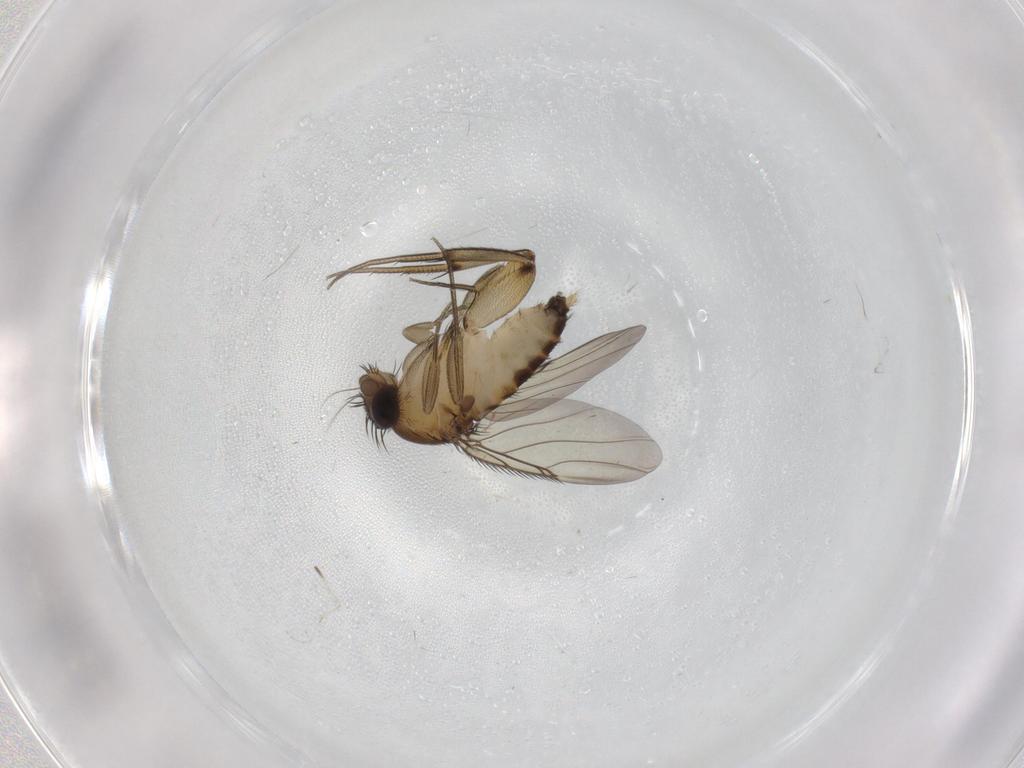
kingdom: Animalia
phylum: Arthropoda
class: Insecta
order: Diptera
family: Phoridae
